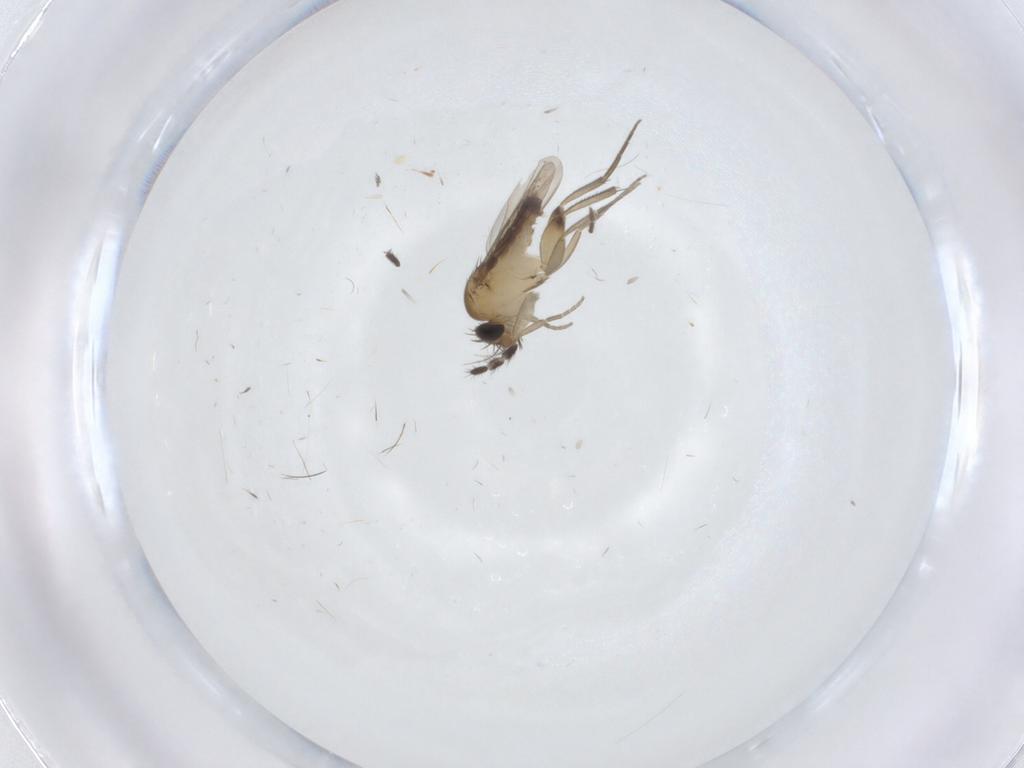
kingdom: Animalia
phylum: Arthropoda
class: Insecta
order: Diptera
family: Phoridae
